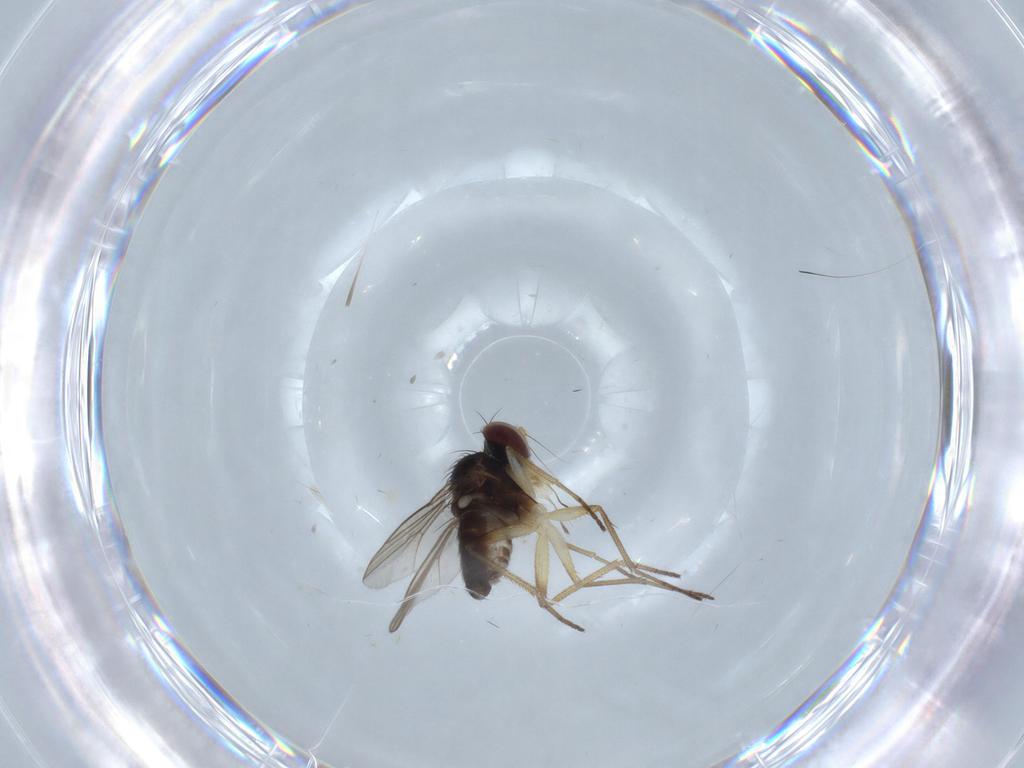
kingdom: Animalia
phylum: Arthropoda
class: Insecta
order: Diptera
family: Dolichopodidae
